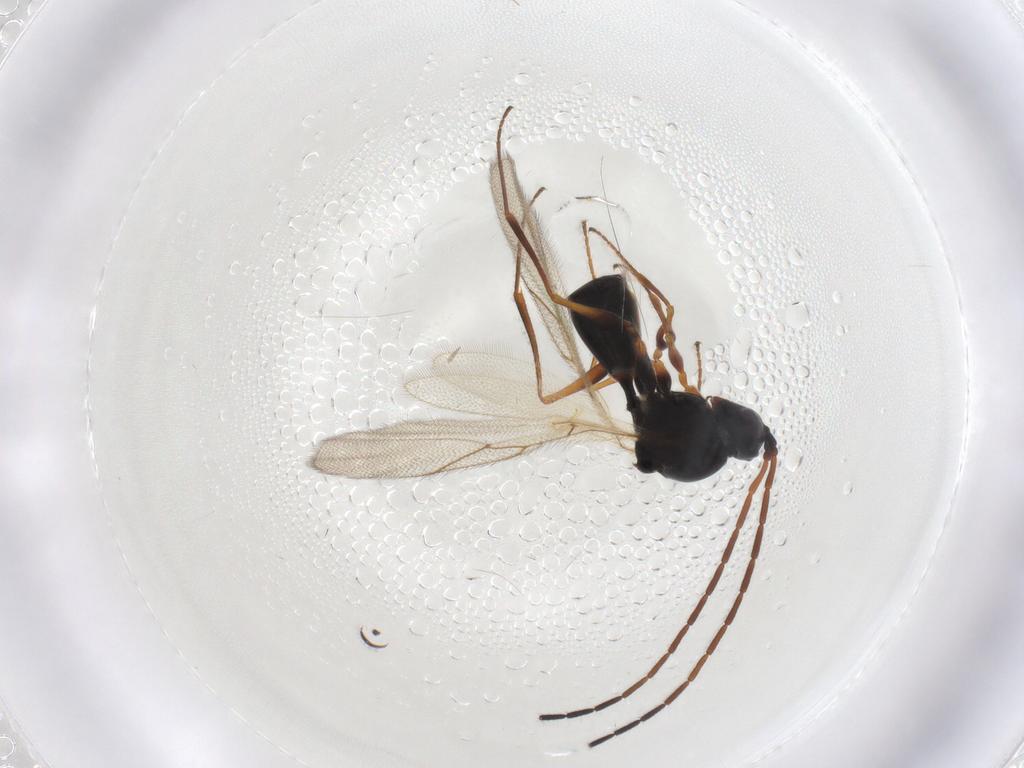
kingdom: Animalia
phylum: Arthropoda
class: Insecta
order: Hymenoptera
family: Figitidae
